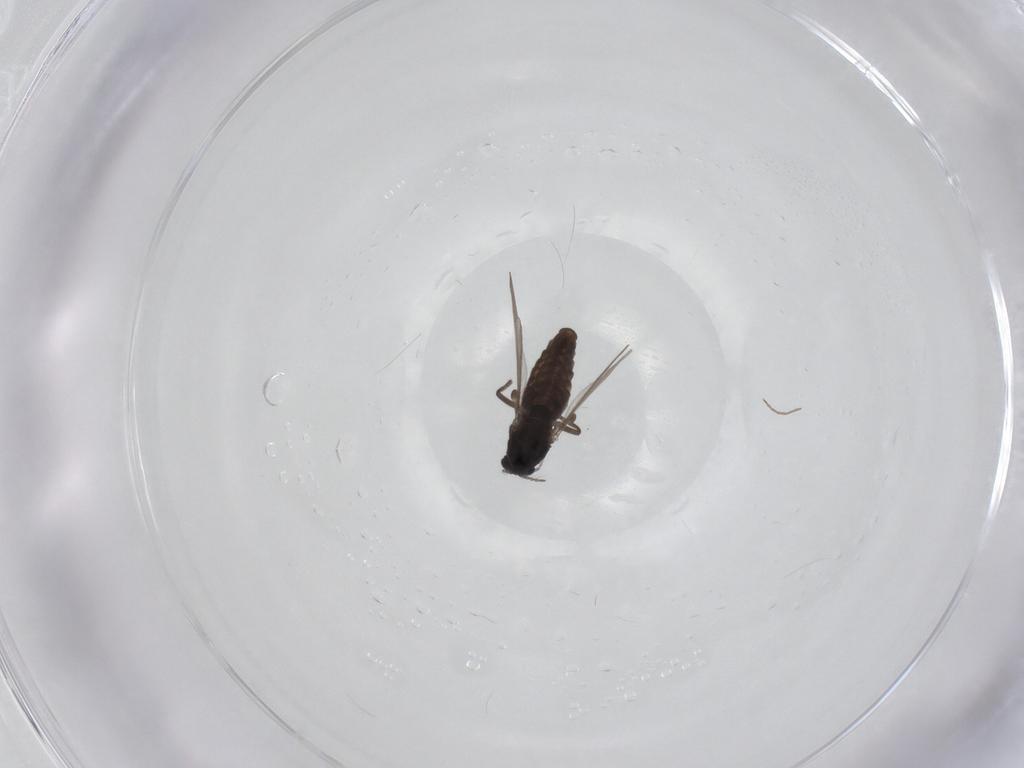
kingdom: Animalia
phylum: Arthropoda
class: Insecta
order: Diptera
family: Chironomidae
